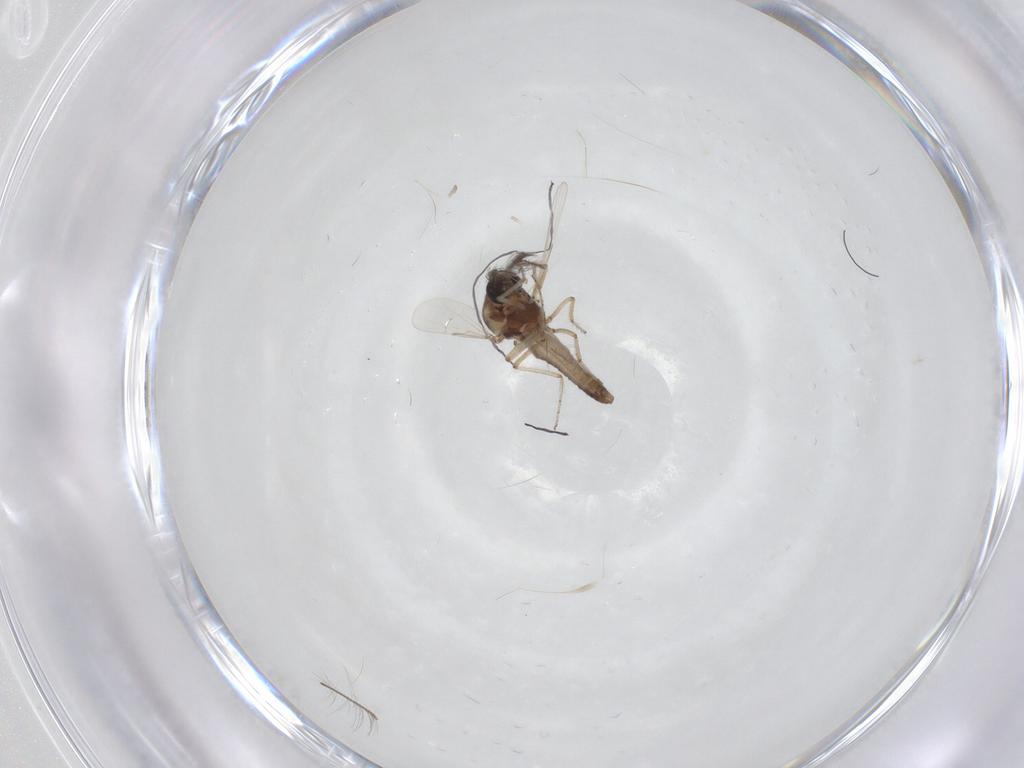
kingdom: Animalia
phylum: Arthropoda
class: Insecta
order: Diptera
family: Ceratopogonidae
